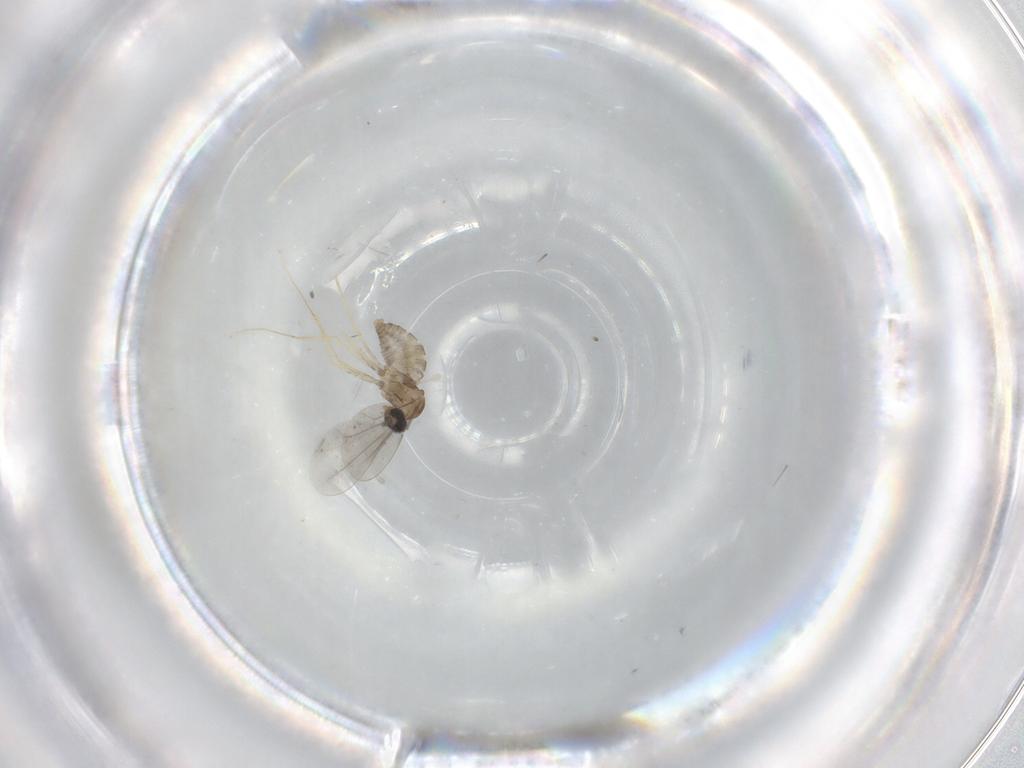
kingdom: Animalia
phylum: Arthropoda
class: Insecta
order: Diptera
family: Cecidomyiidae
